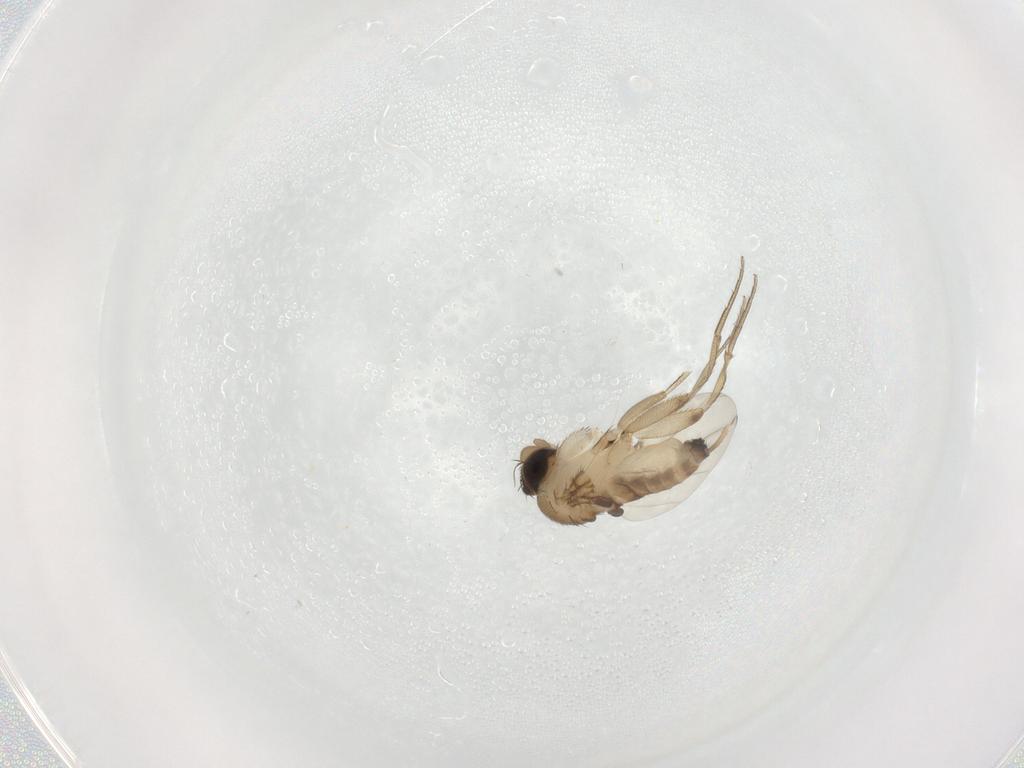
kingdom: Animalia
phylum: Arthropoda
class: Insecta
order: Diptera
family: Phoridae
